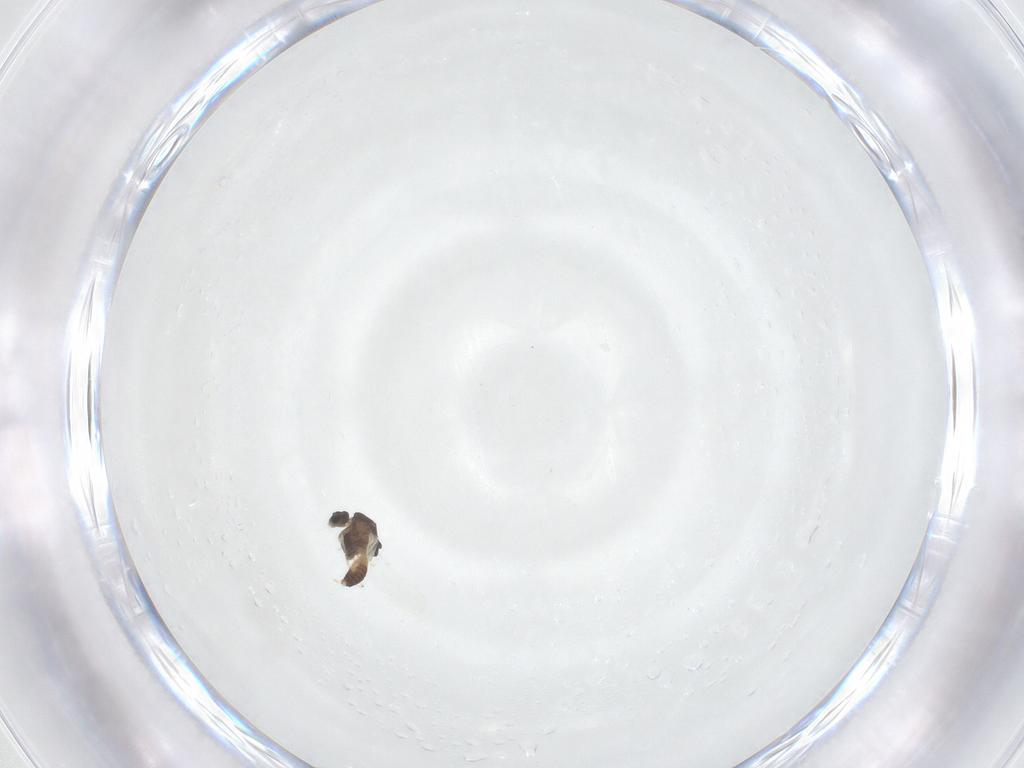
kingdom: Animalia
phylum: Arthropoda
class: Insecta
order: Diptera
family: Chironomidae
